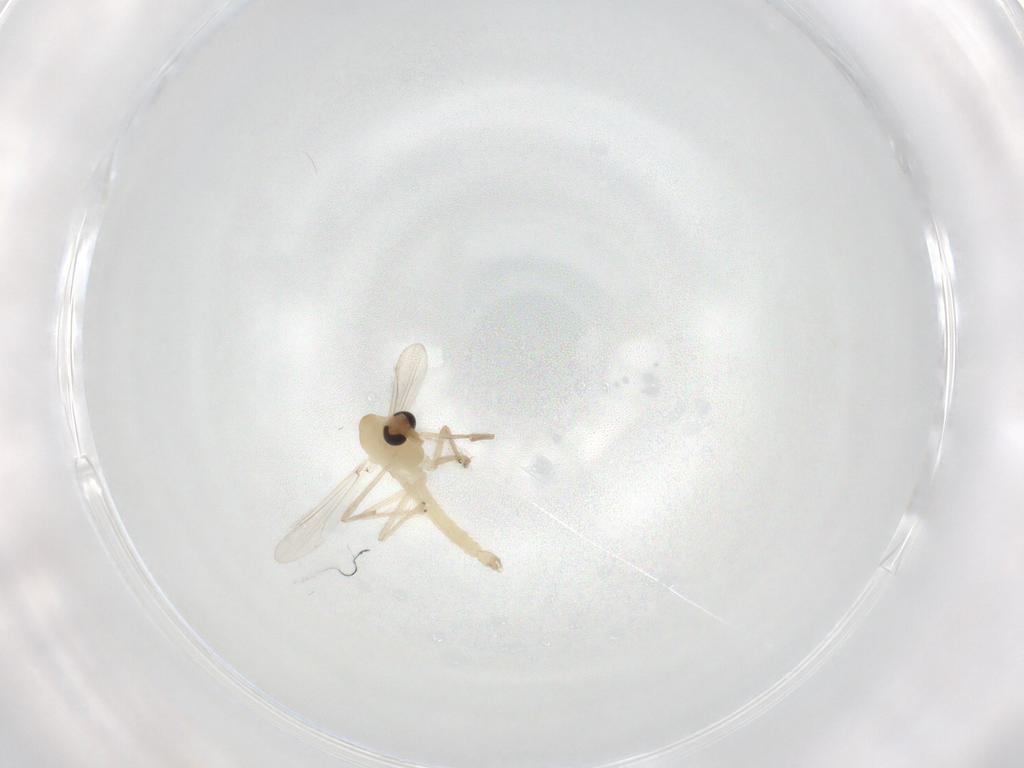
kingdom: Animalia
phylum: Arthropoda
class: Insecta
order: Diptera
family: Chironomidae
